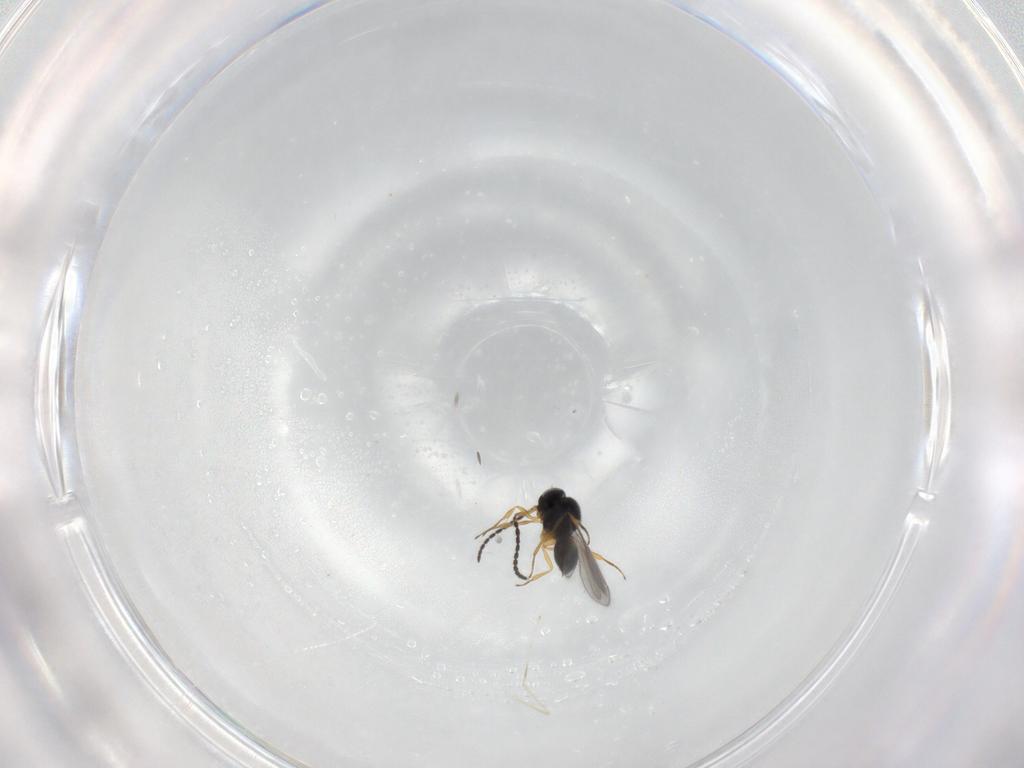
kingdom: Animalia
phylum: Arthropoda
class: Insecta
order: Hymenoptera
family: Scelionidae
